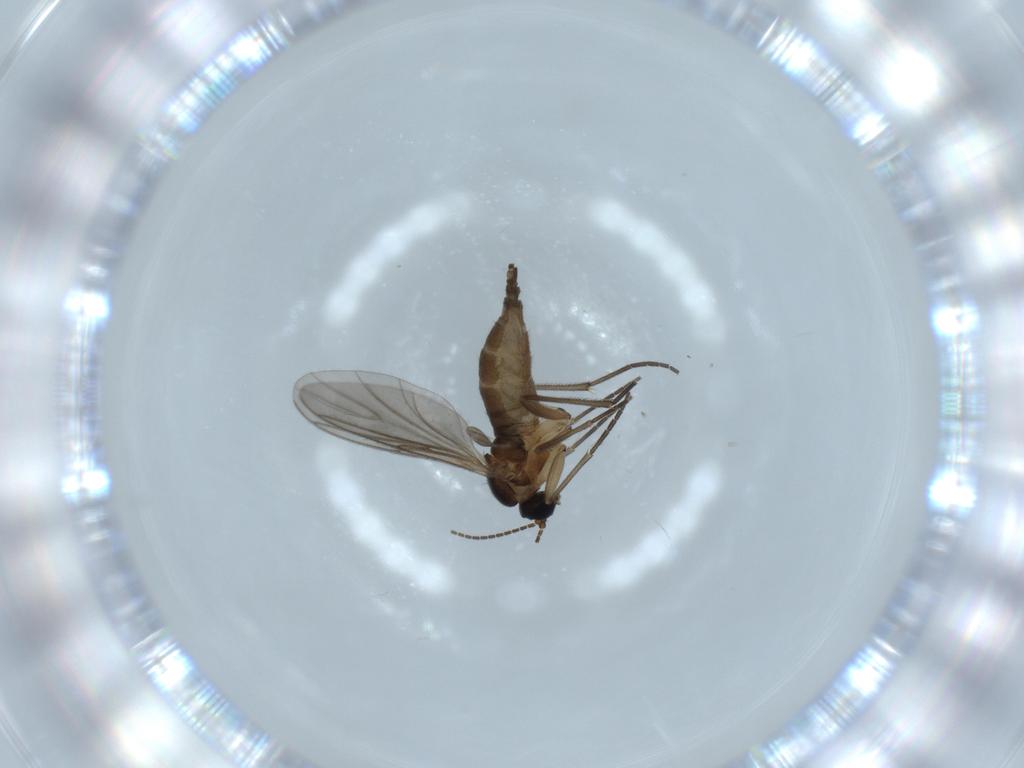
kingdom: Animalia
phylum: Arthropoda
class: Insecta
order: Diptera
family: Sciaridae
